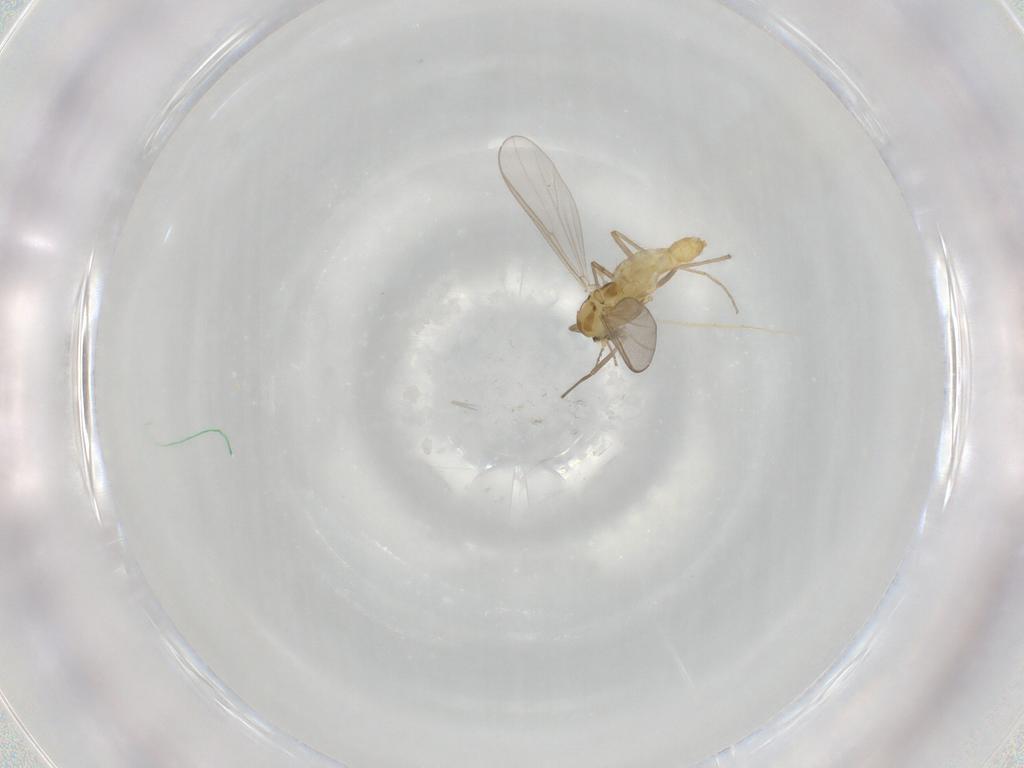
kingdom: Animalia
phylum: Arthropoda
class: Insecta
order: Diptera
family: Chironomidae
